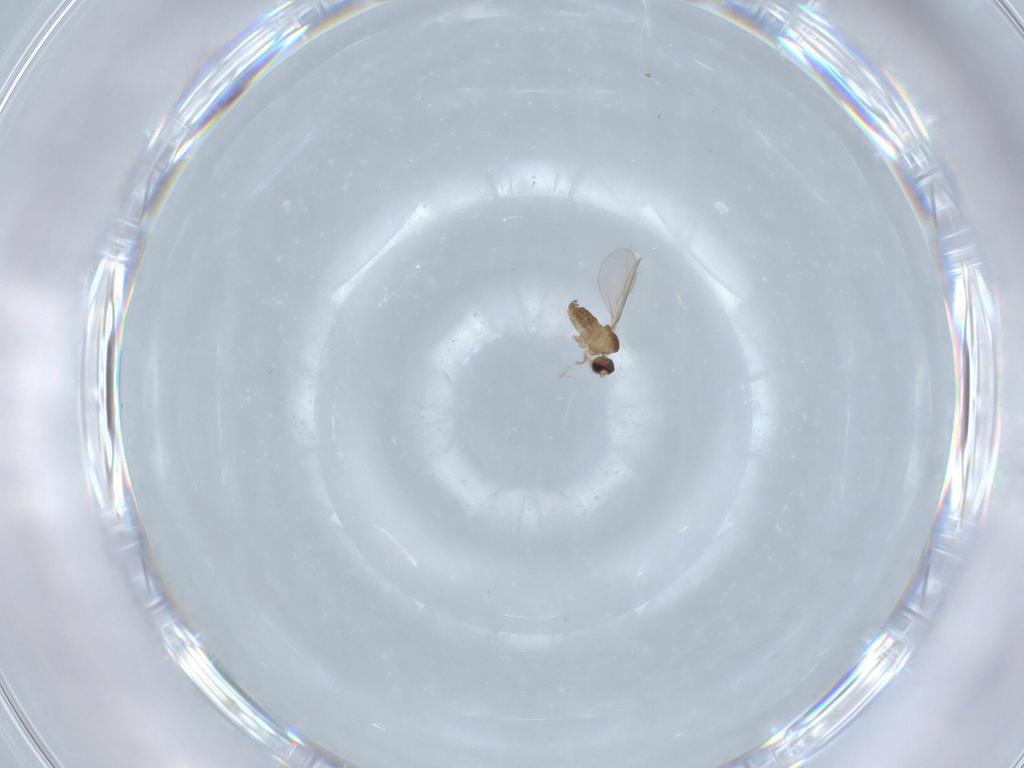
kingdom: Animalia
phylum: Arthropoda
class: Insecta
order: Diptera
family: Cecidomyiidae
